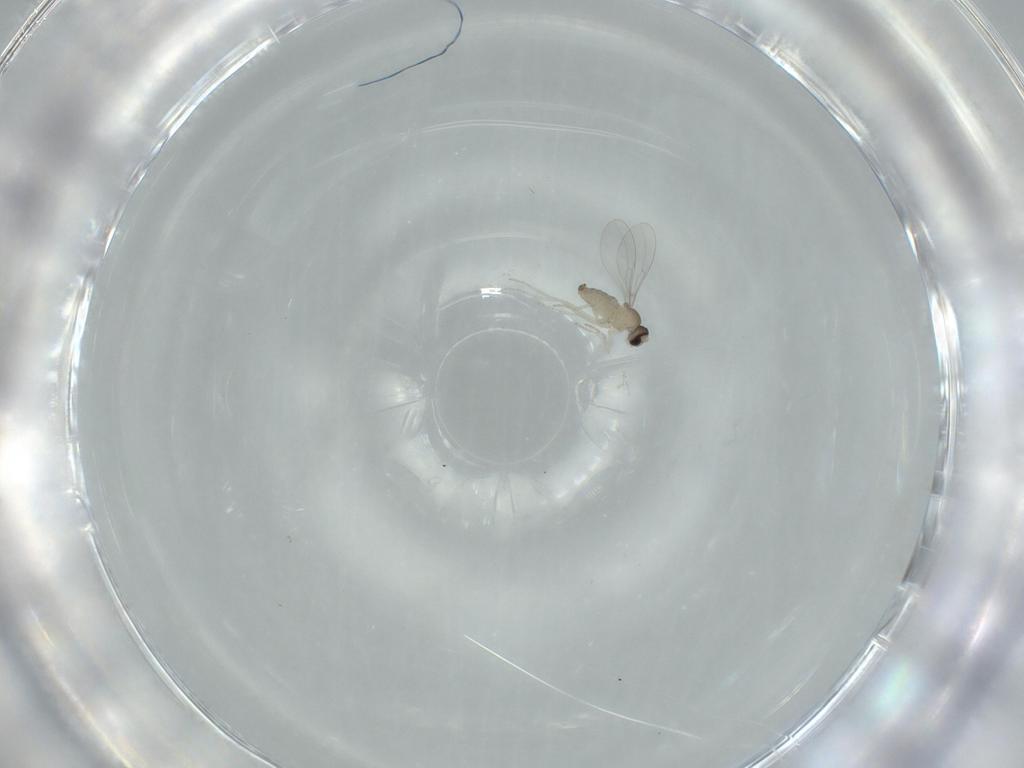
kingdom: Animalia
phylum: Arthropoda
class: Insecta
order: Diptera
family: Cecidomyiidae
